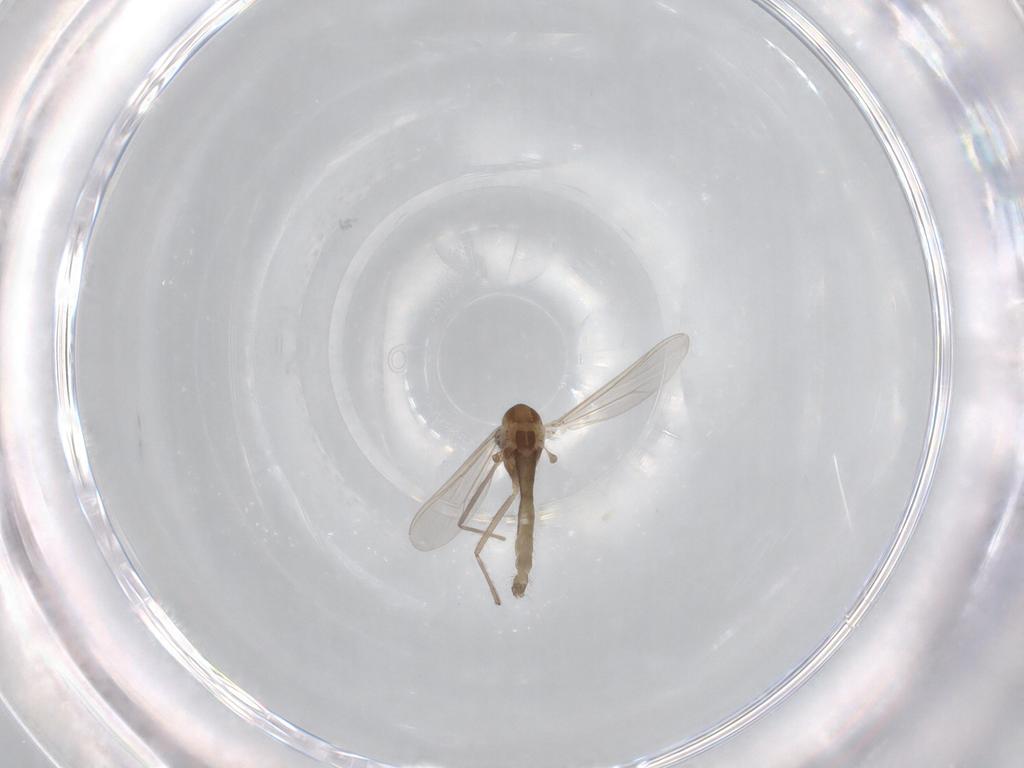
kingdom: Animalia
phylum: Arthropoda
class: Insecta
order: Diptera
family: Chironomidae
